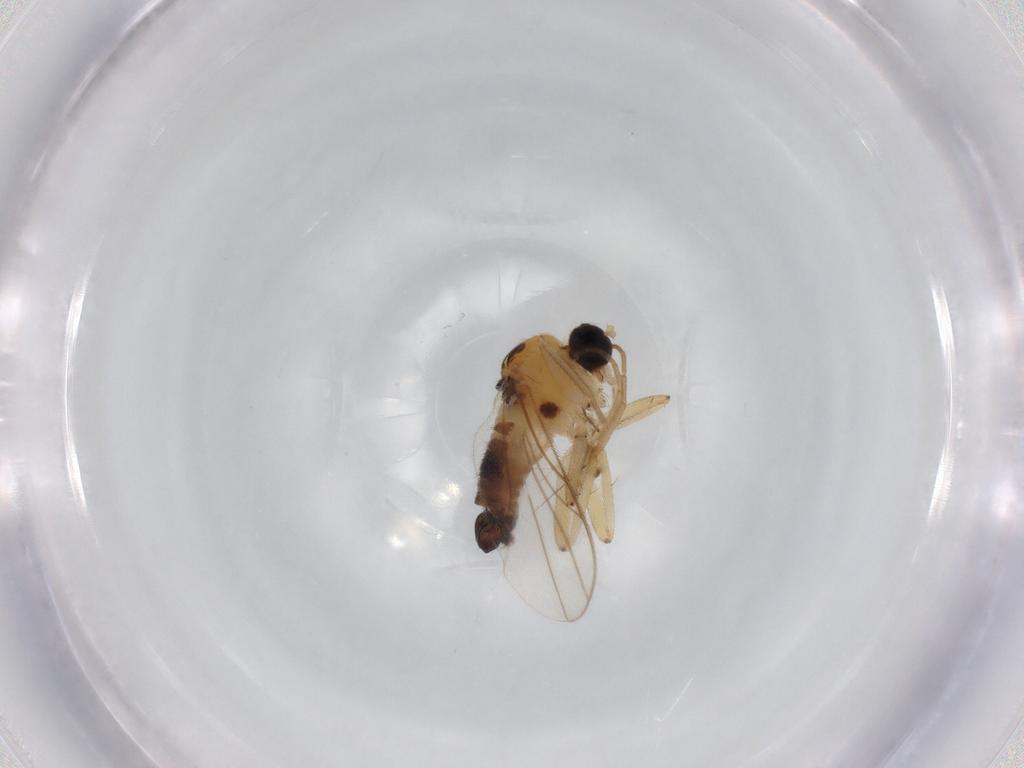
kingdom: Animalia
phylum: Arthropoda
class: Insecta
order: Diptera
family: Hybotidae
